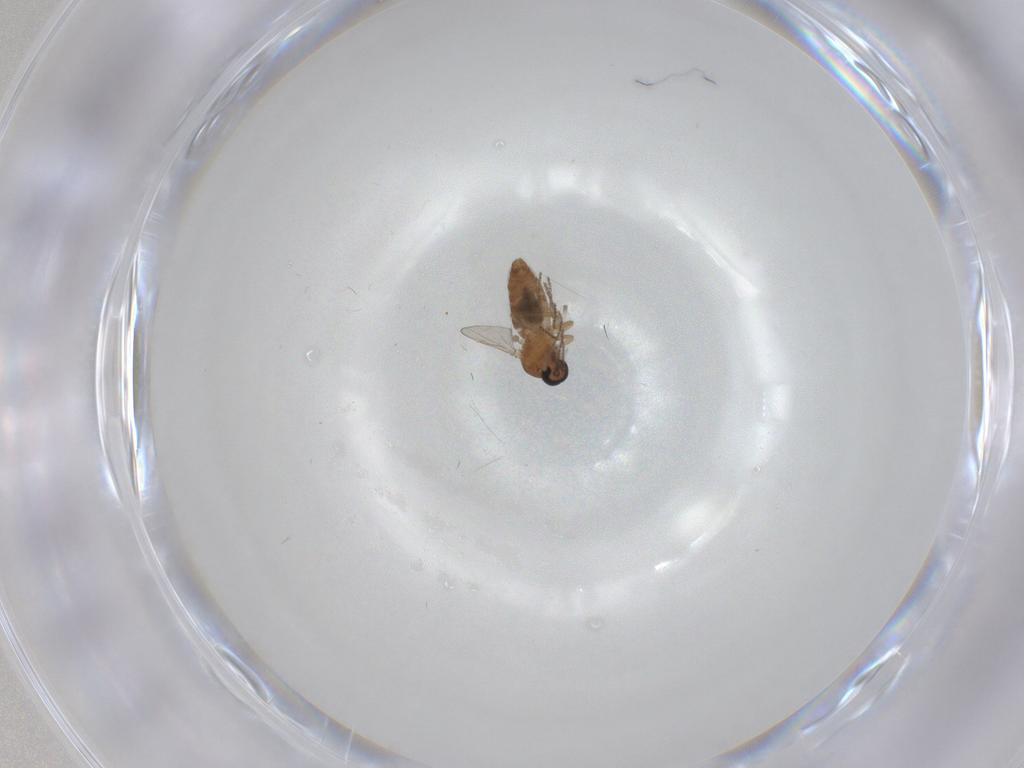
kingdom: Animalia
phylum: Arthropoda
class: Insecta
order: Diptera
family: Ceratopogonidae
